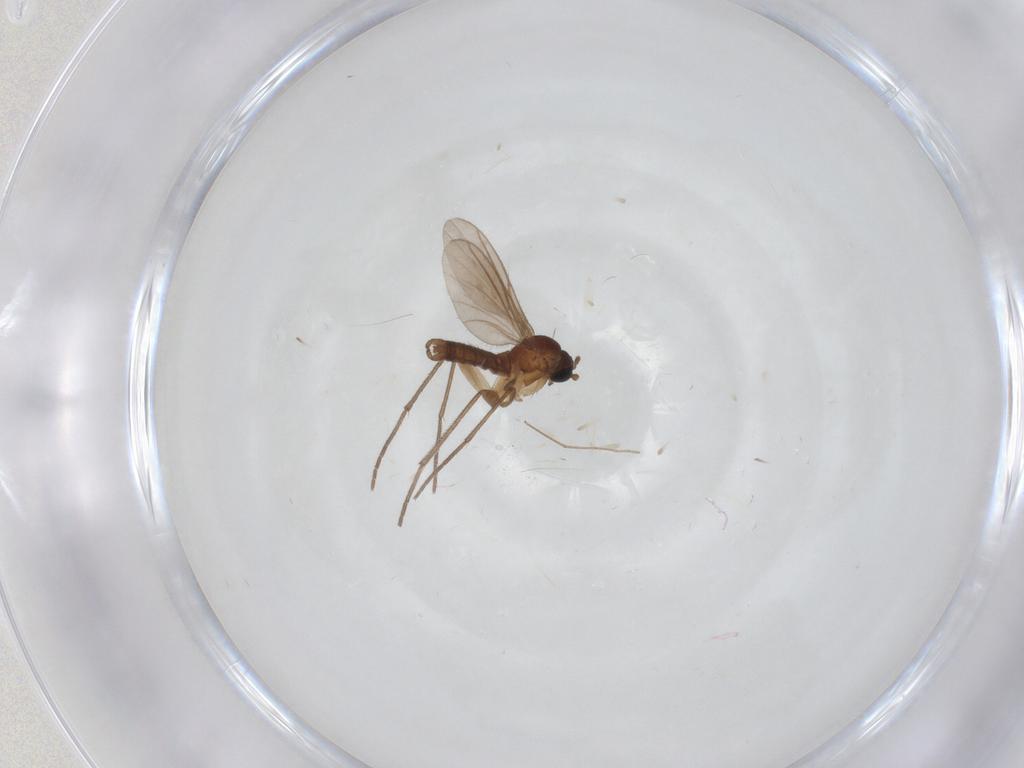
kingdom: Animalia
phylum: Arthropoda
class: Insecta
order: Diptera
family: Sciaridae
